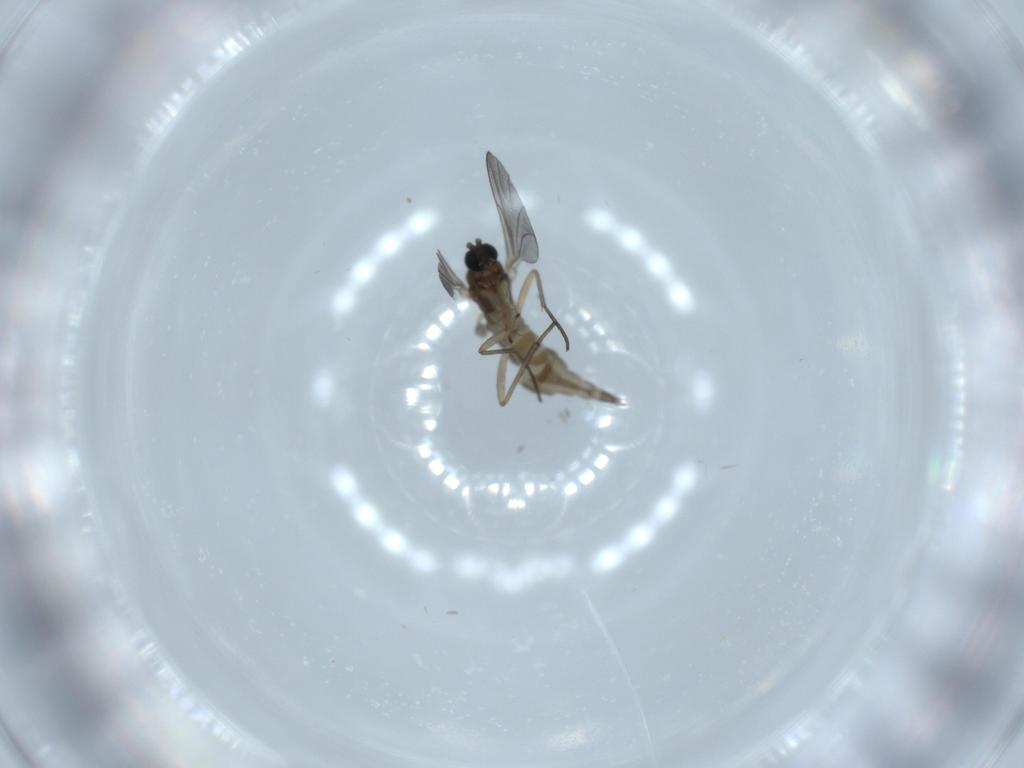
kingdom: Animalia
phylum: Arthropoda
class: Insecta
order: Diptera
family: Sciaridae
